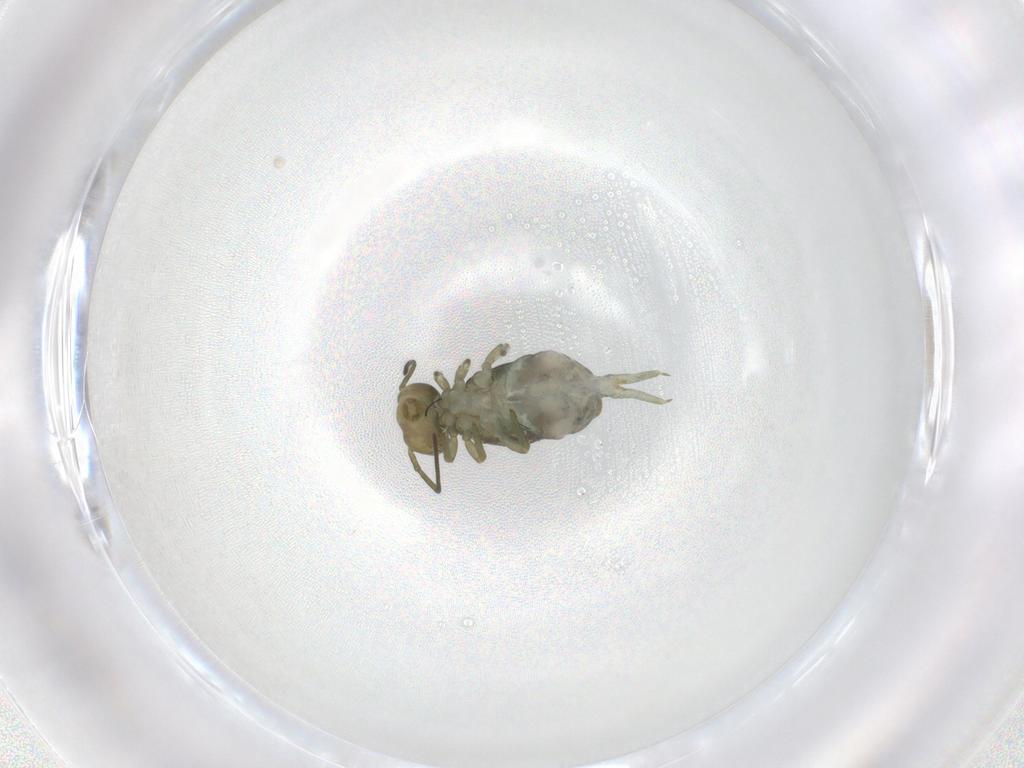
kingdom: Animalia
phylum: Arthropoda
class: Collembola
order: Symphypleona
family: Sminthuridae
